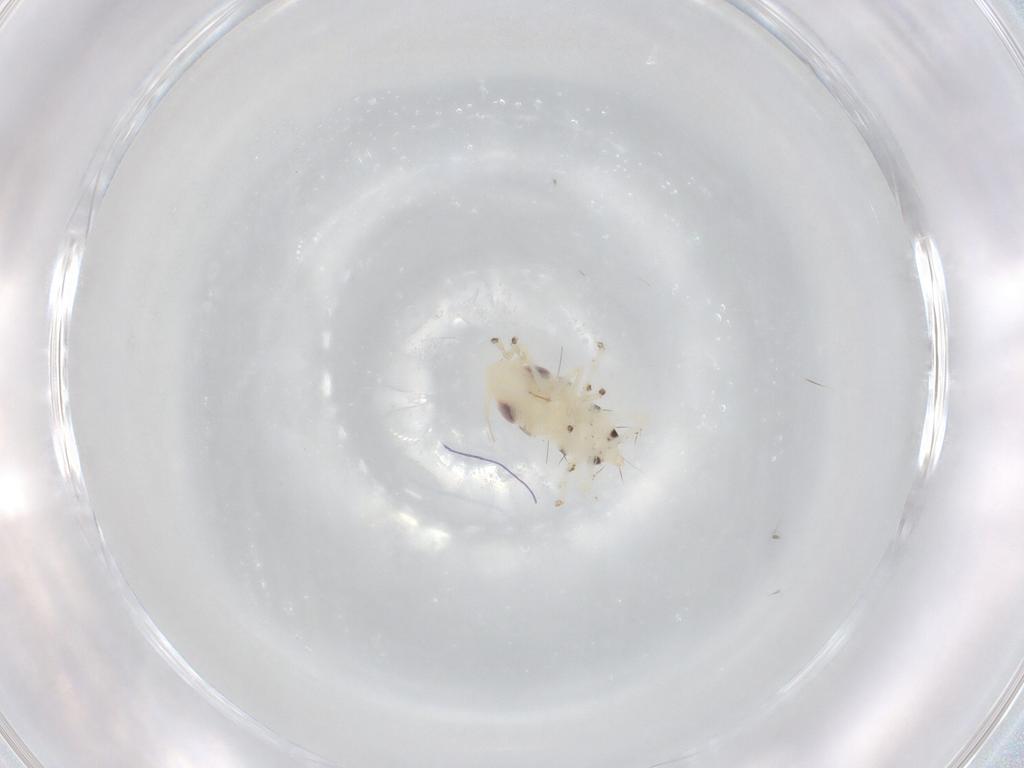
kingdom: Animalia
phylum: Arthropoda
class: Insecta
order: Hemiptera
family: Cicadellidae
